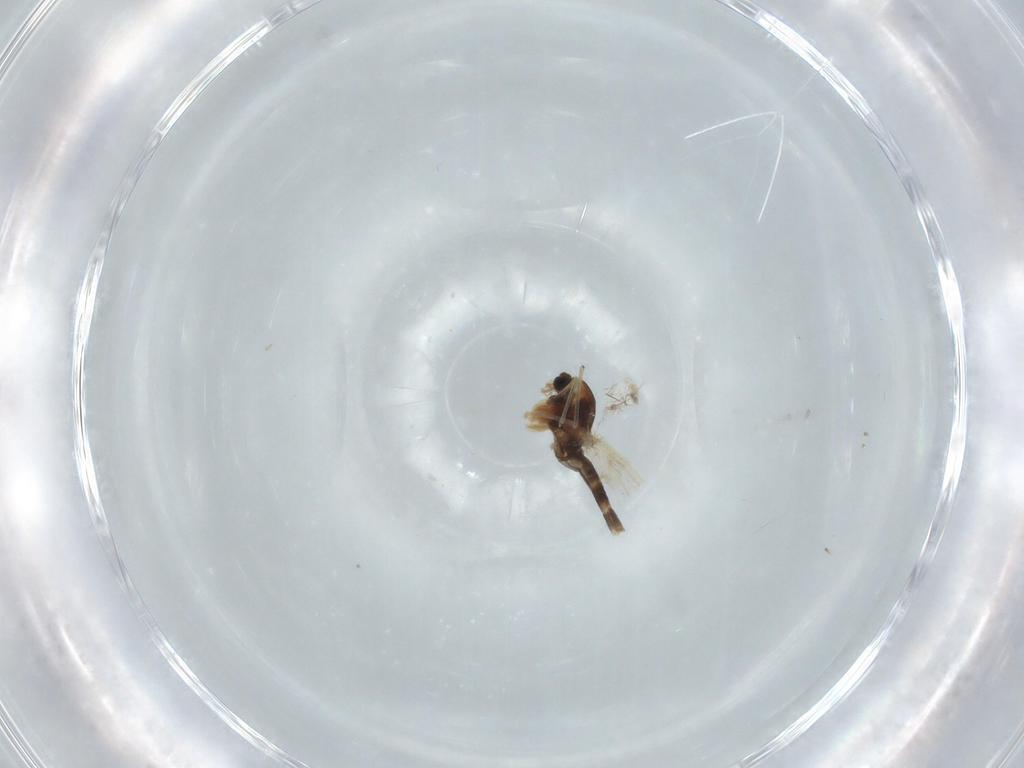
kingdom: Animalia
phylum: Arthropoda
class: Insecta
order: Diptera
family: Chironomidae
